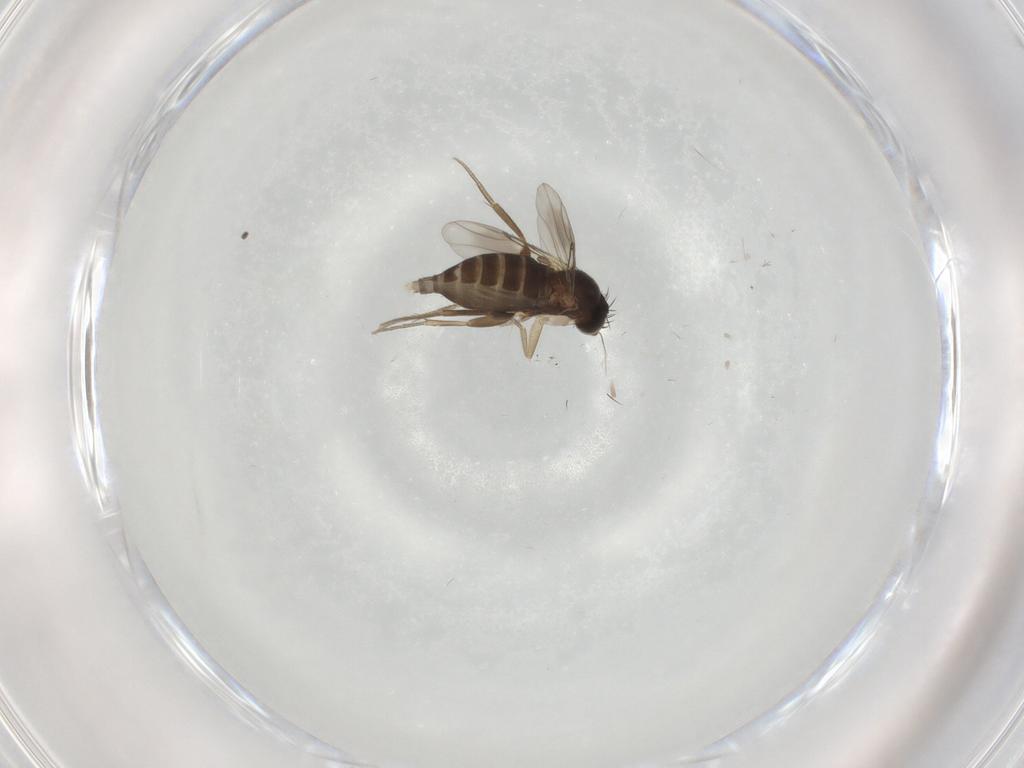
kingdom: Animalia
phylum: Arthropoda
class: Insecta
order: Diptera
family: Phoridae
